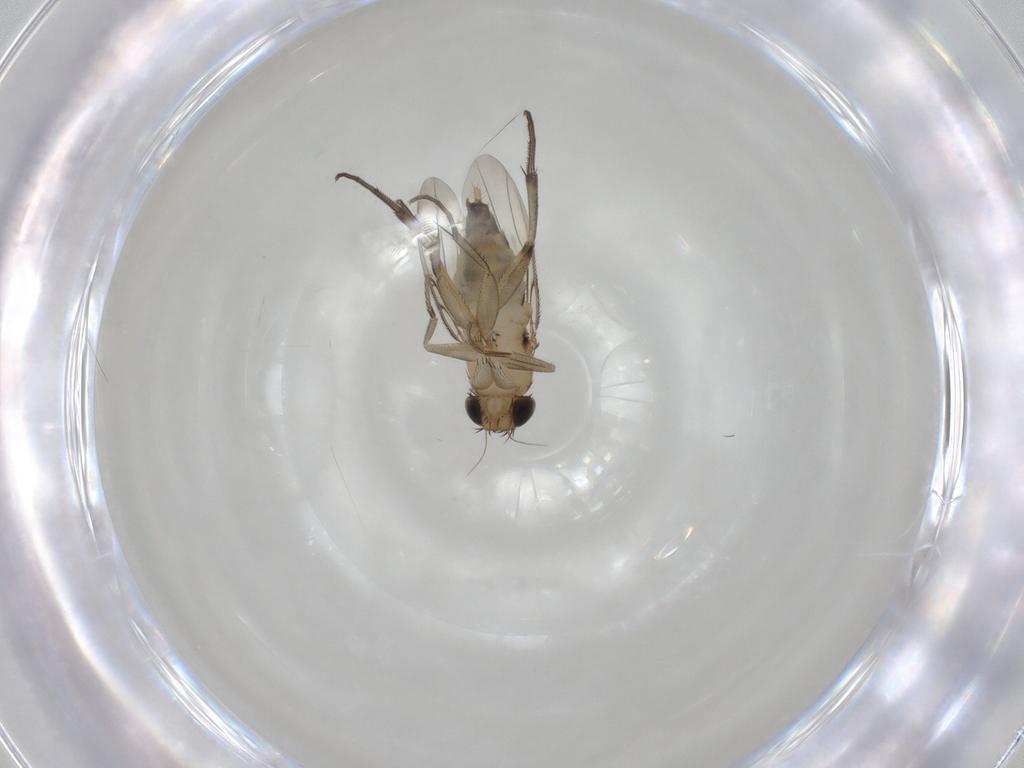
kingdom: Animalia
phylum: Arthropoda
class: Insecta
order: Diptera
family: Phoridae
